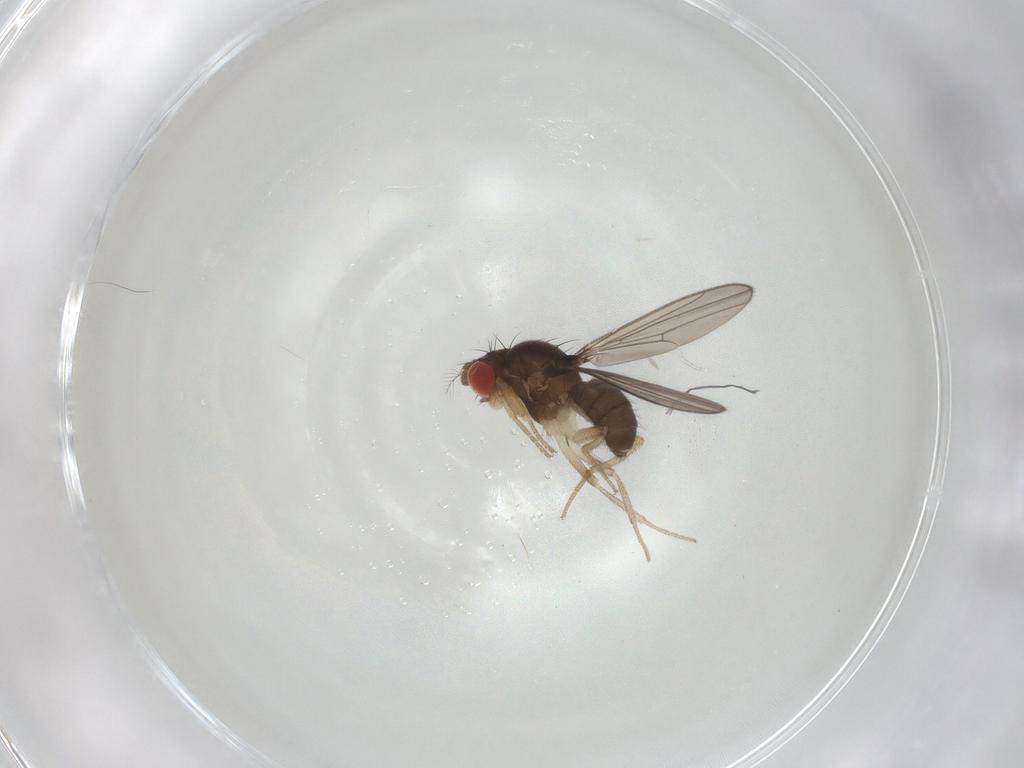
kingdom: Animalia
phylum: Arthropoda
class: Insecta
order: Diptera
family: Drosophilidae
